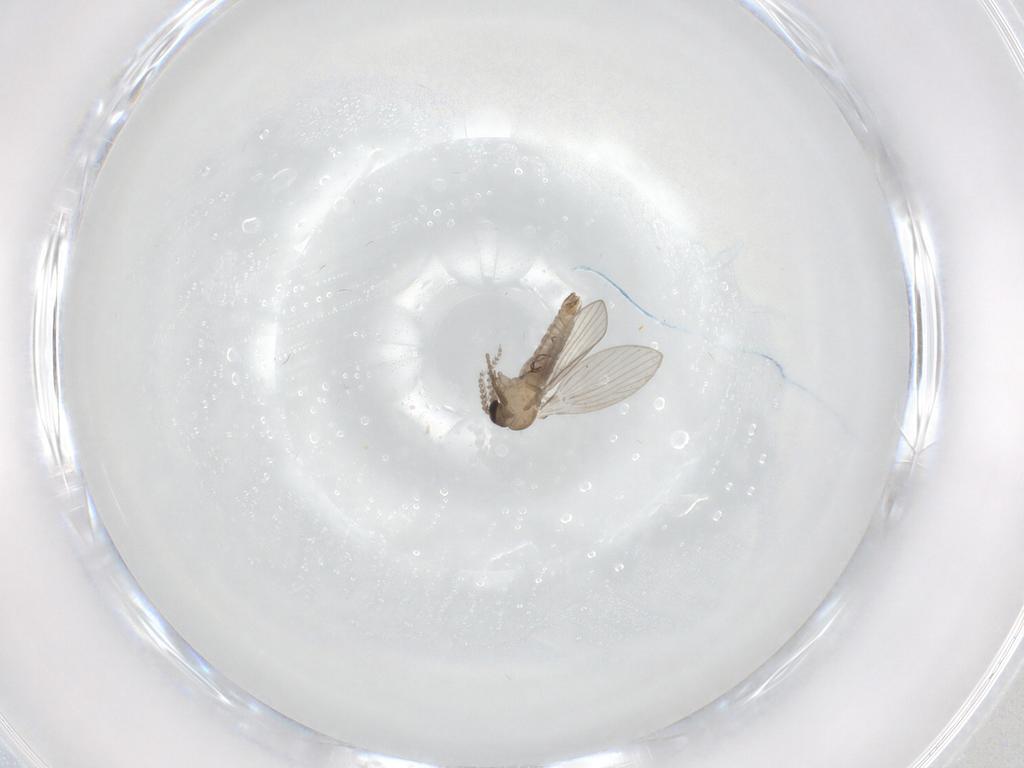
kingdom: Animalia
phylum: Arthropoda
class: Insecta
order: Diptera
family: Psychodidae
